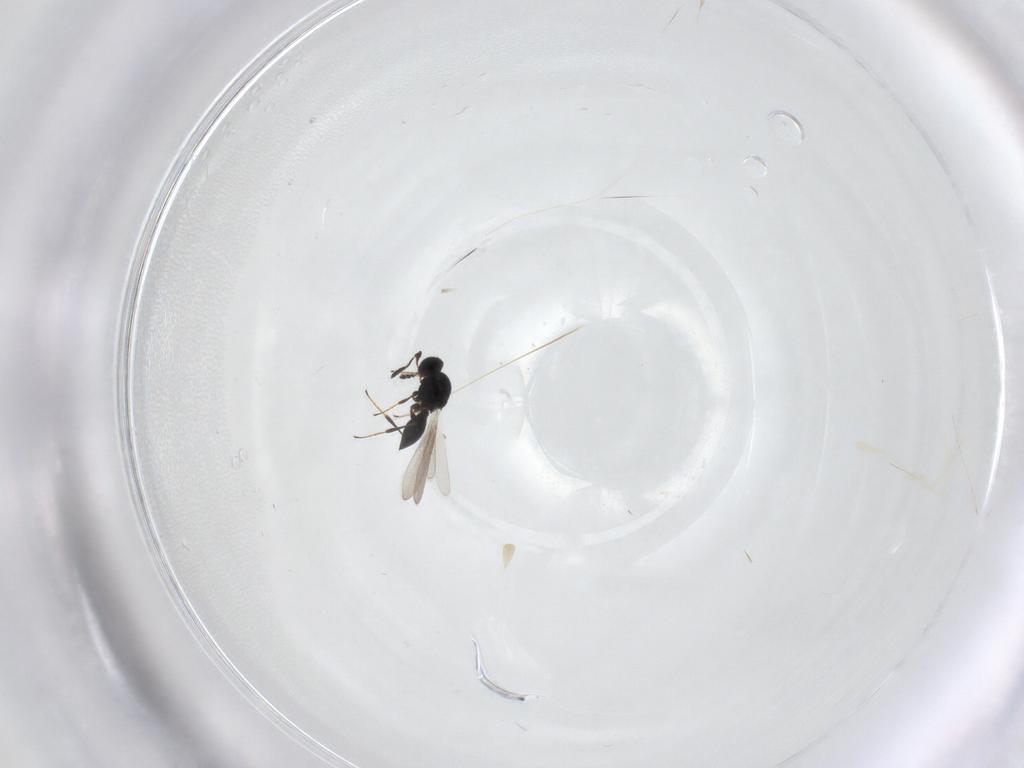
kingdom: Animalia
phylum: Arthropoda
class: Insecta
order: Hymenoptera
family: Platygastridae
